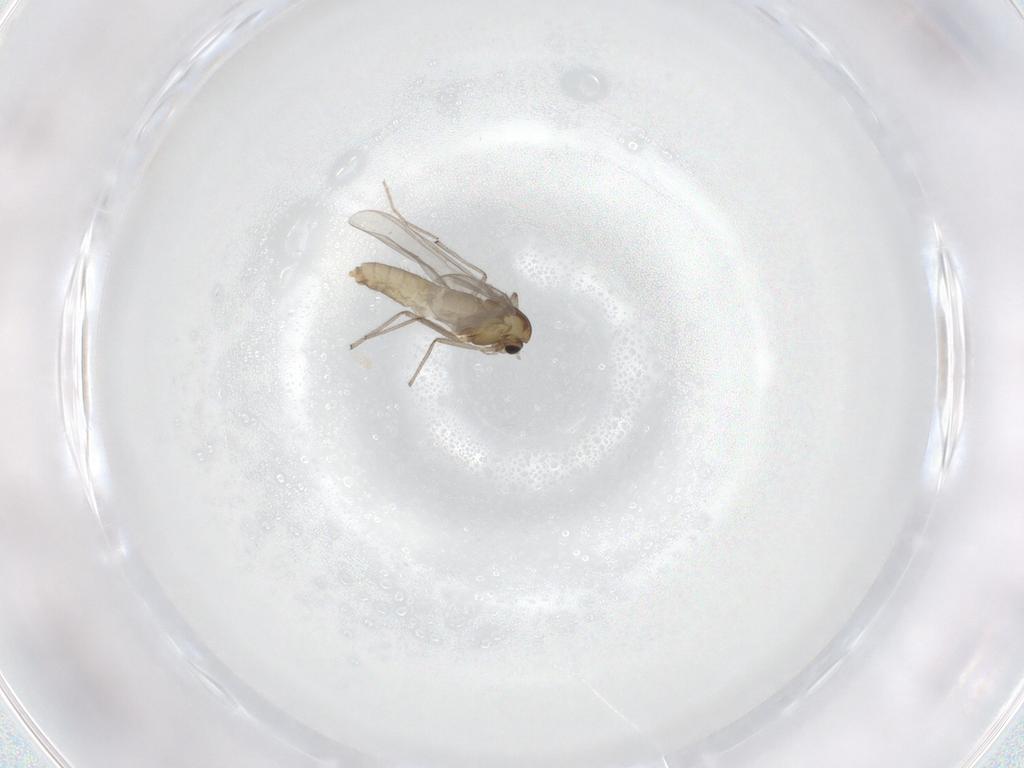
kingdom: Animalia
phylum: Arthropoda
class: Insecta
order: Diptera
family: Chironomidae
